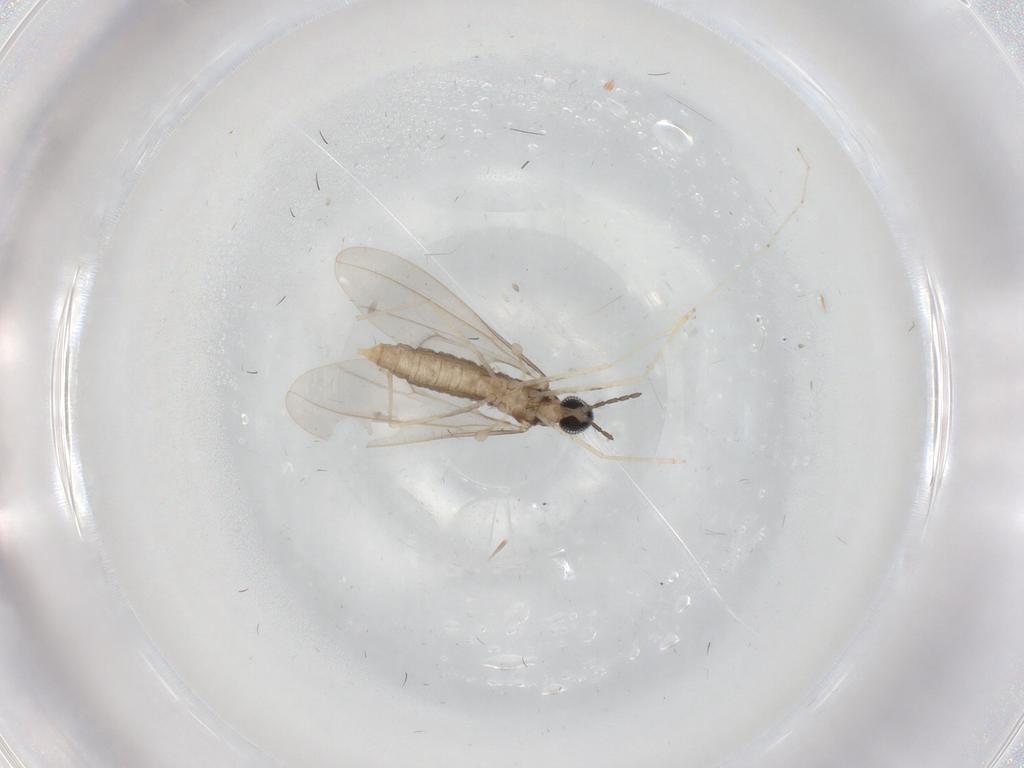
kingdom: Animalia
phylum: Arthropoda
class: Insecta
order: Diptera
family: Cecidomyiidae
